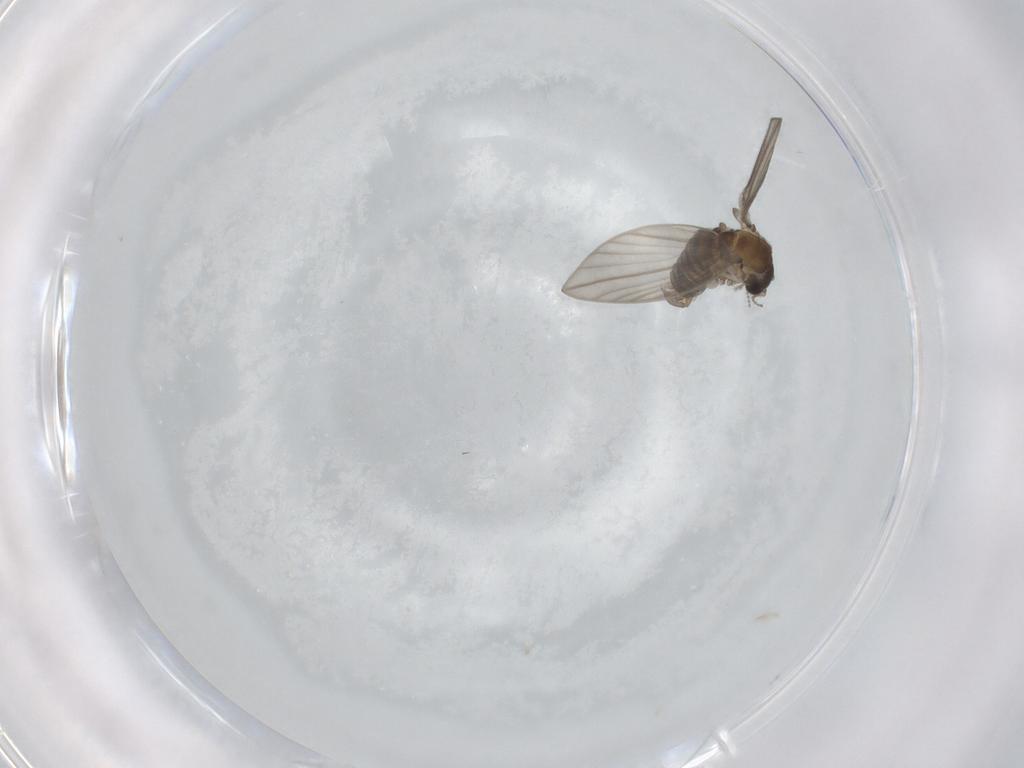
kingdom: Animalia
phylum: Arthropoda
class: Insecta
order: Diptera
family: Psychodidae
